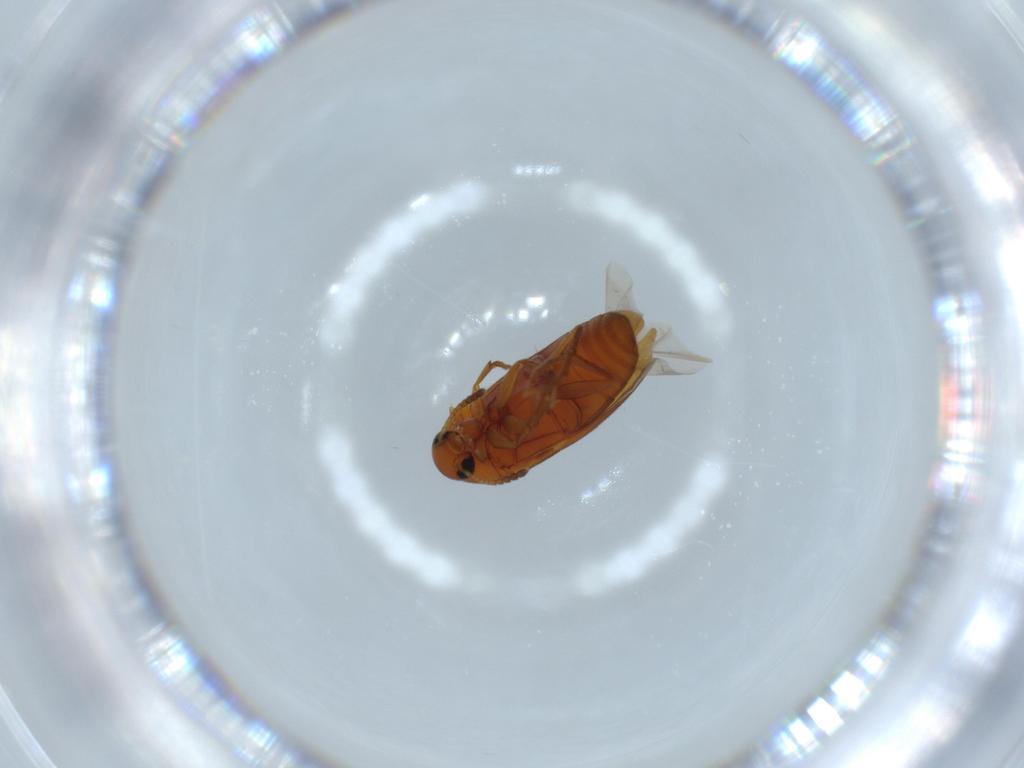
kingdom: Animalia
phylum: Arthropoda
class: Insecta
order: Coleoptera
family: Scraptiidae
